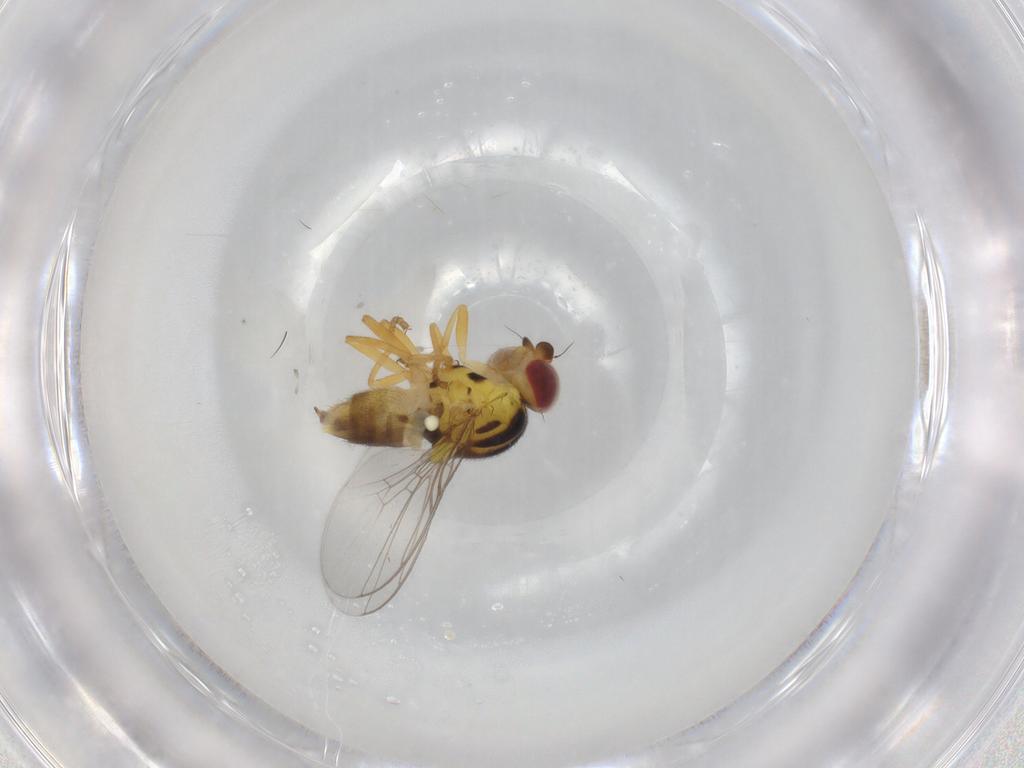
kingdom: Animalia
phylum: Arthropoda
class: Insecta
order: Diptera
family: Chloropidae
